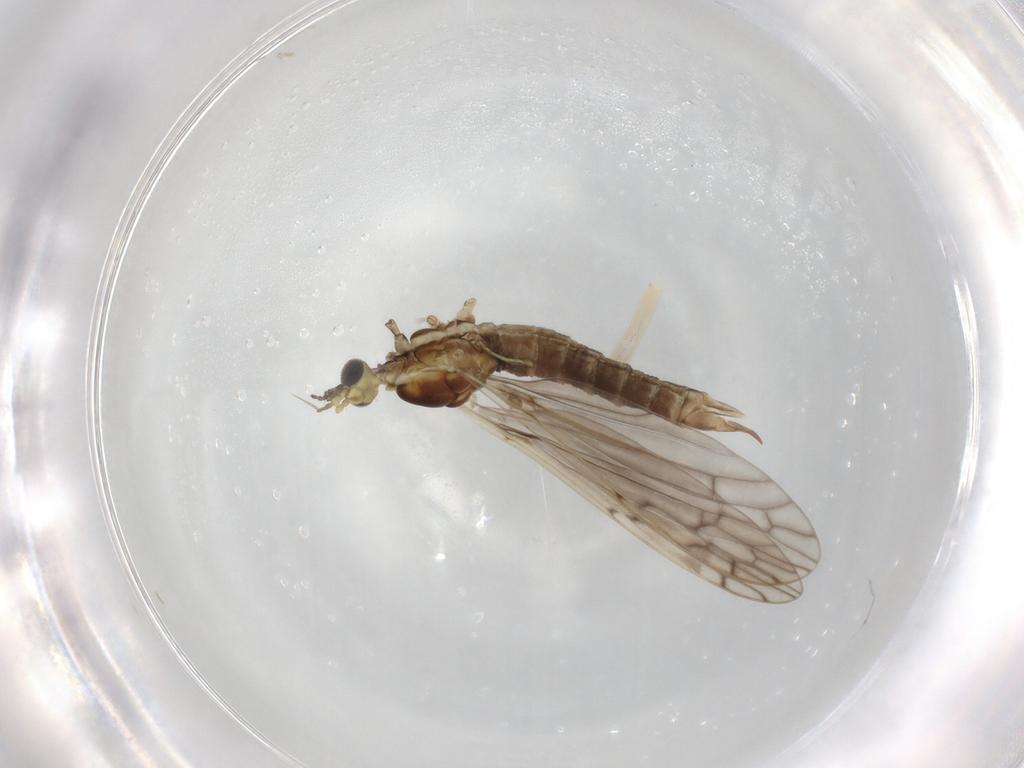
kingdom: Animalia
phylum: Arthropoda
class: Insecta
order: Diptera
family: Limoniidae
